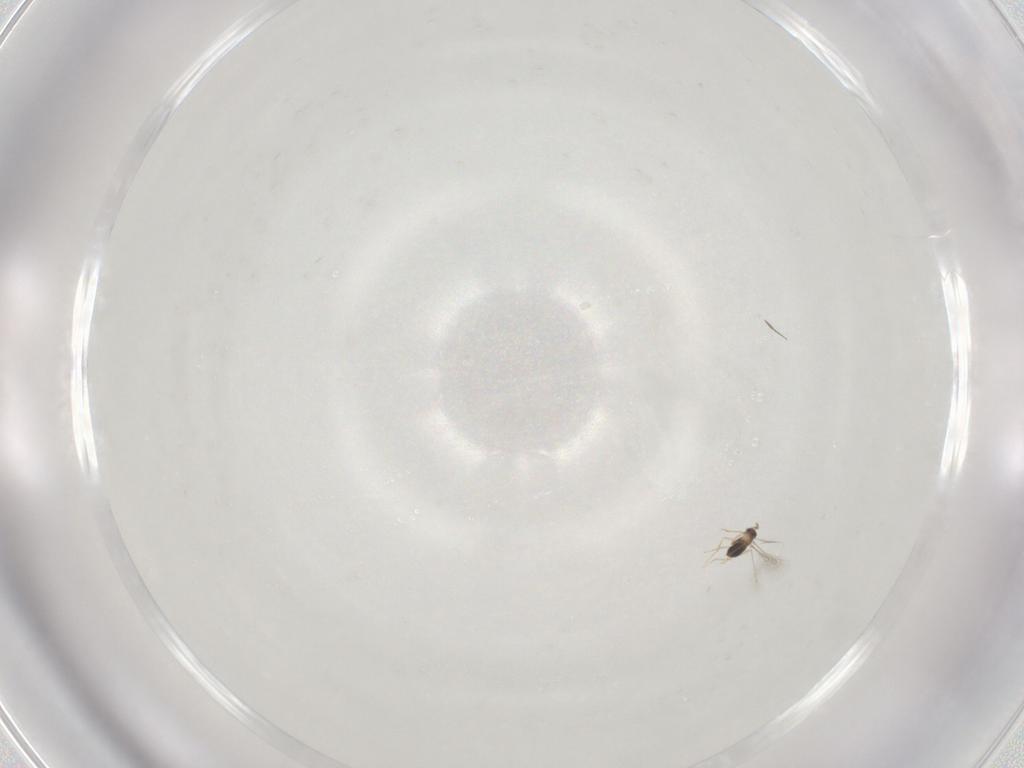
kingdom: Animalia
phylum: Arthropoda
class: Insecta
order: Hymenoptera
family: Mymaridae
